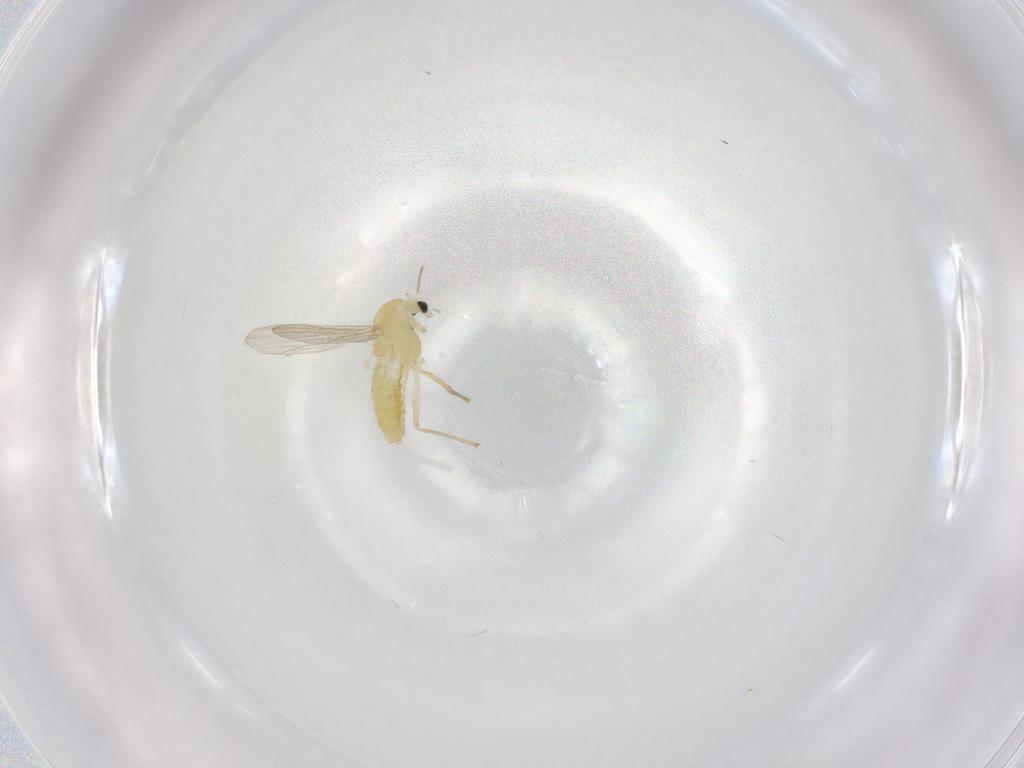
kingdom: Animalia
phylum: Arthropoda
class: Insecta
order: Diptera
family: Chironomidae
